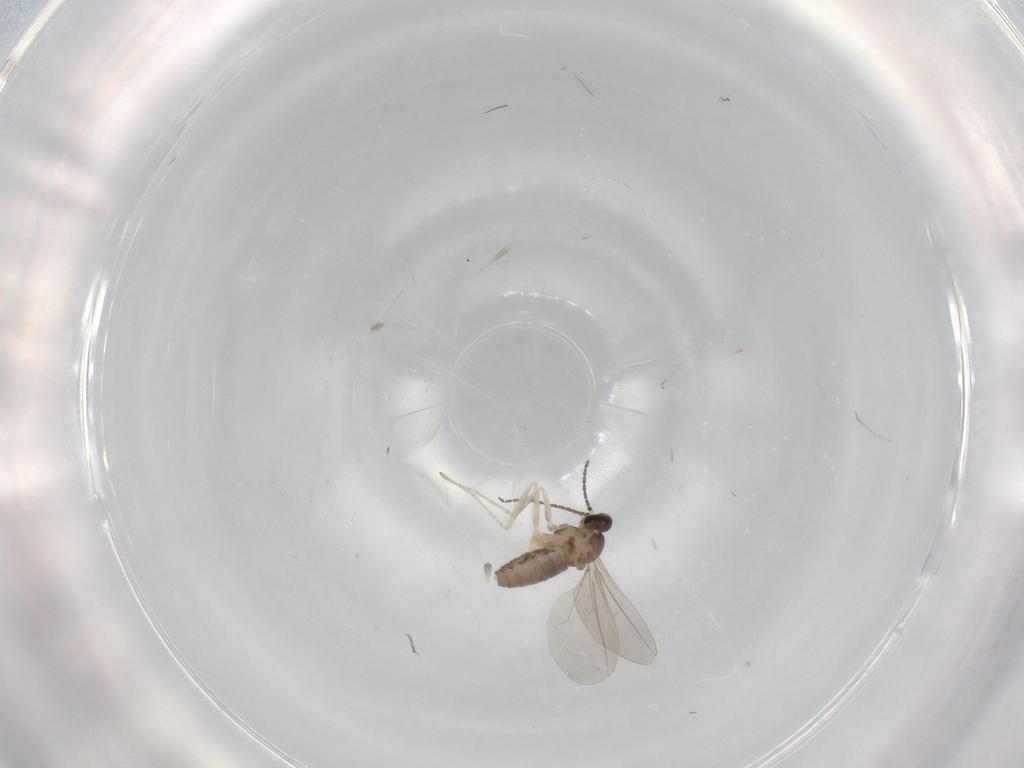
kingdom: Animalia
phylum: Arthropoda
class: Insecta
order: Diptera
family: Cecidomyiidae
